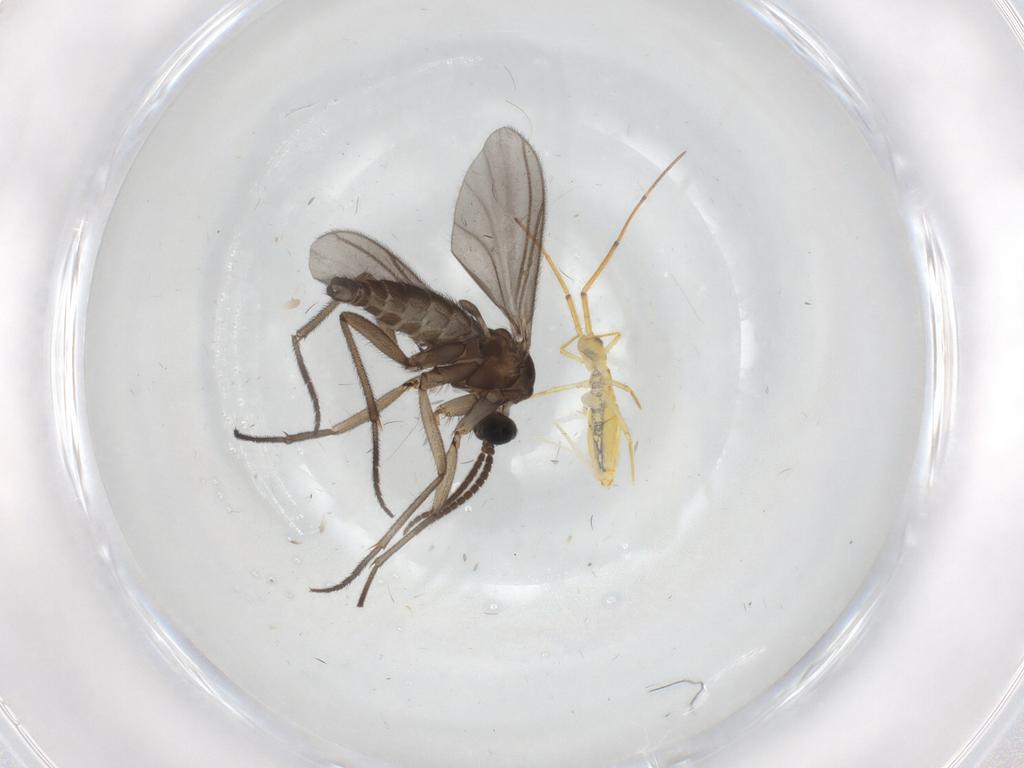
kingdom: Animalia
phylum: Arthropoda
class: Insecta
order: Diptera
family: Sciaridae
